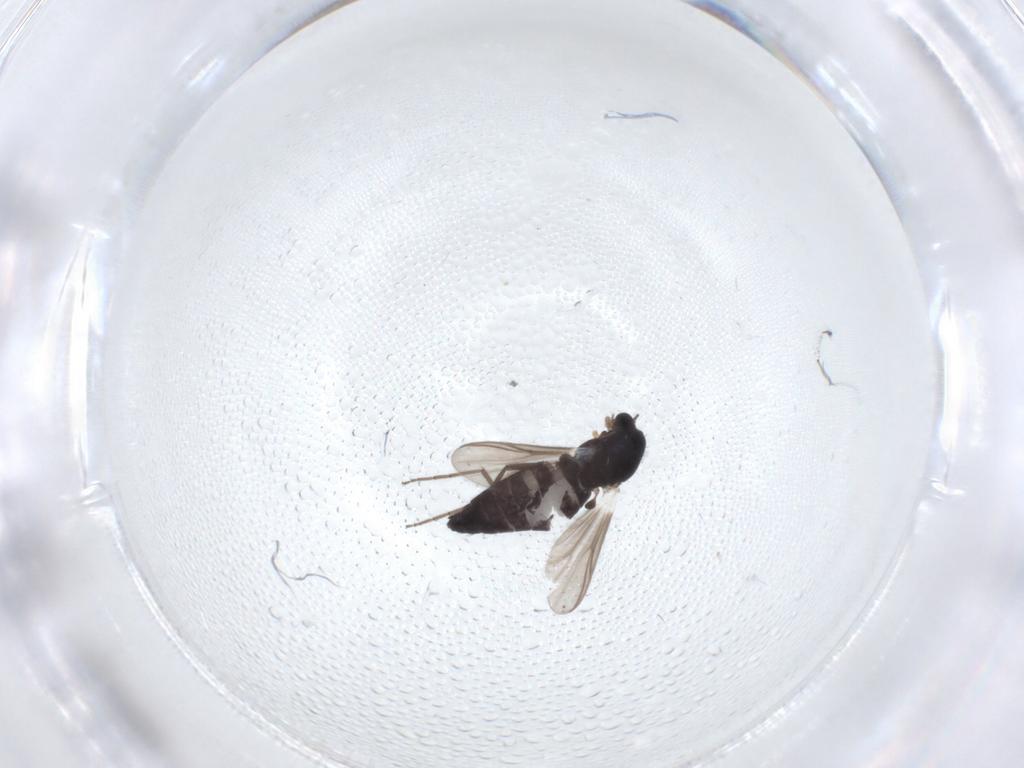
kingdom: Animalia
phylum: Arthropoda
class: Insecta
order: Diptera
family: Chironomidae
